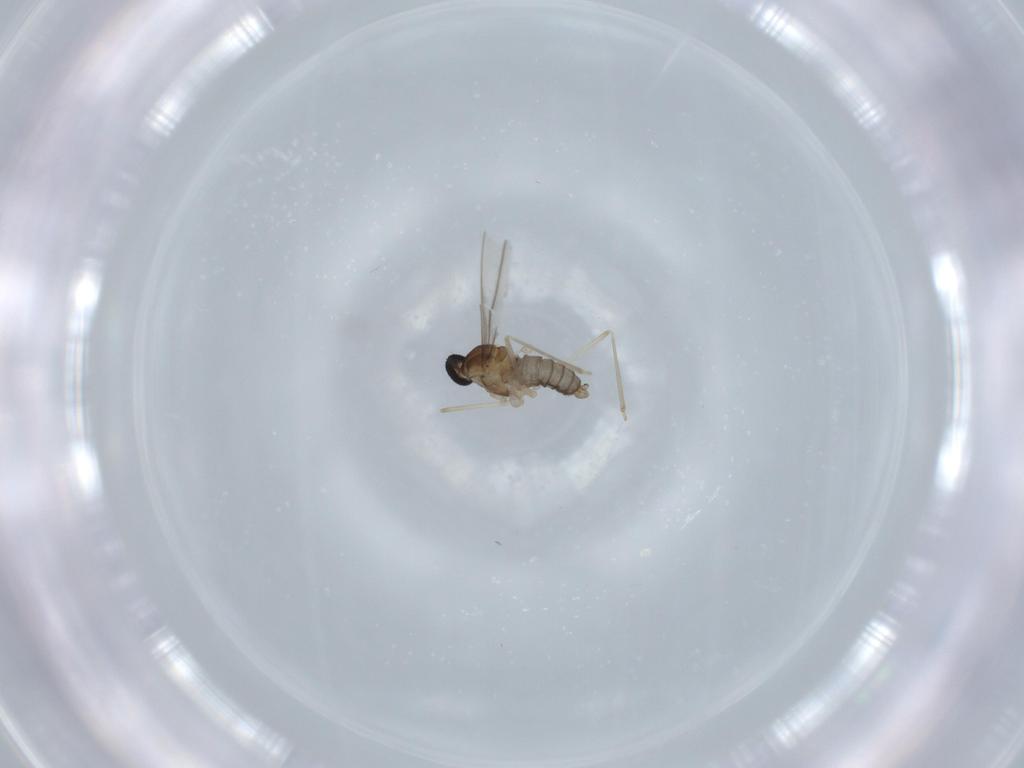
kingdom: Animalia
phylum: Arthropoda
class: Insecta
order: Diptera
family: Cecidomyiidae
